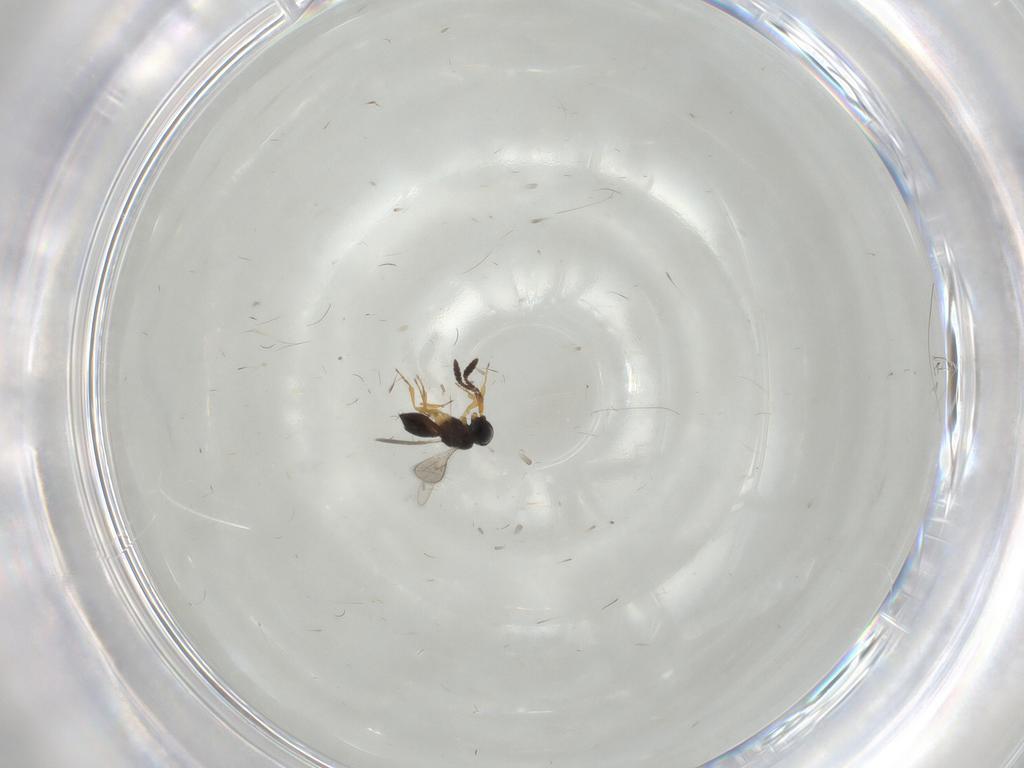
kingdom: Animalia
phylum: Arthropoda
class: Insecta
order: Hymenoptera
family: Scelionidae
